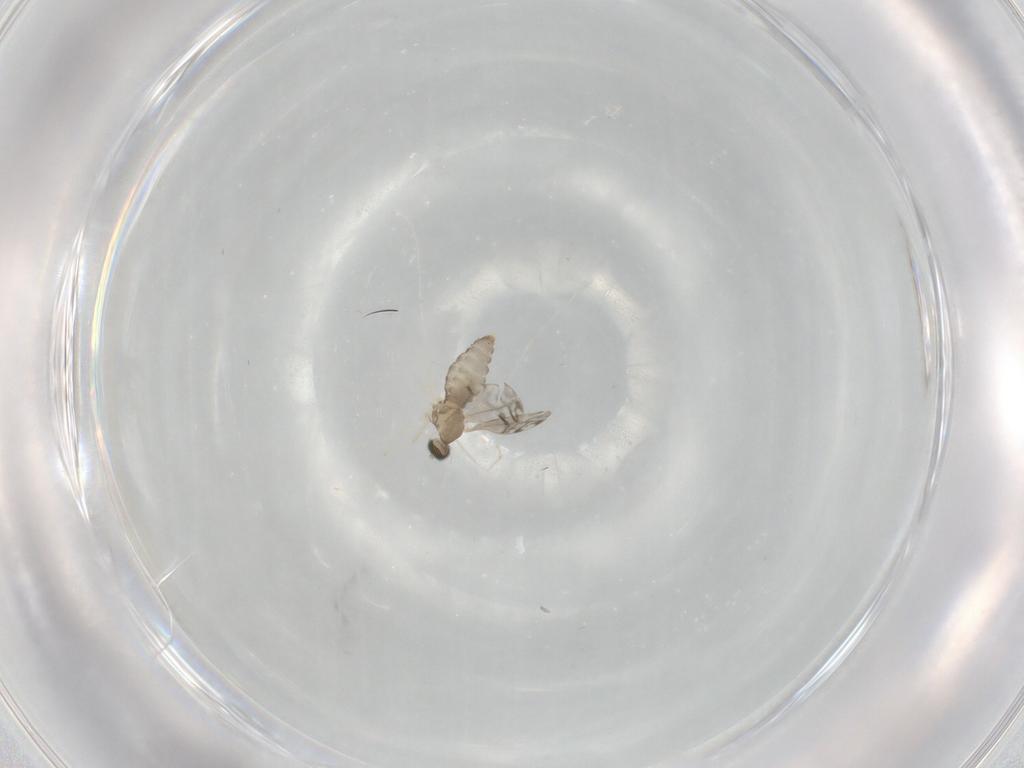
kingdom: Animalia
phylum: Arthropoda
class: Insecta
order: Diptera
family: Cecidomyiidae
